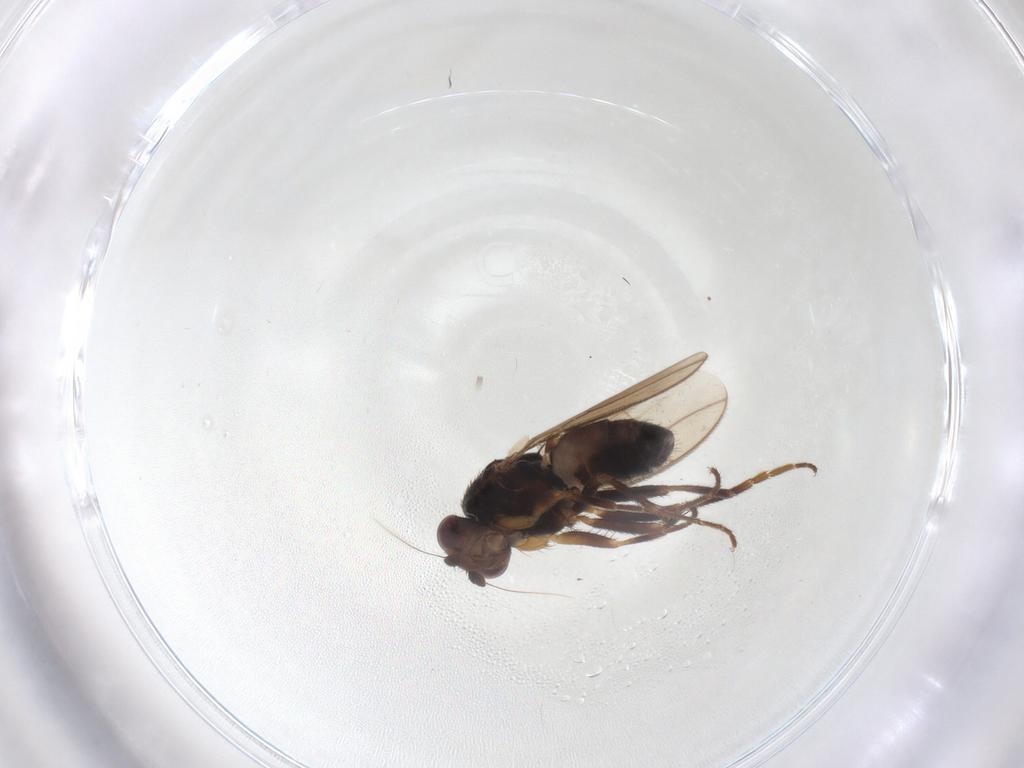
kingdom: Animalia
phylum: Arthropoda
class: Insecta
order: Diptera
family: Sphaeroceridae
